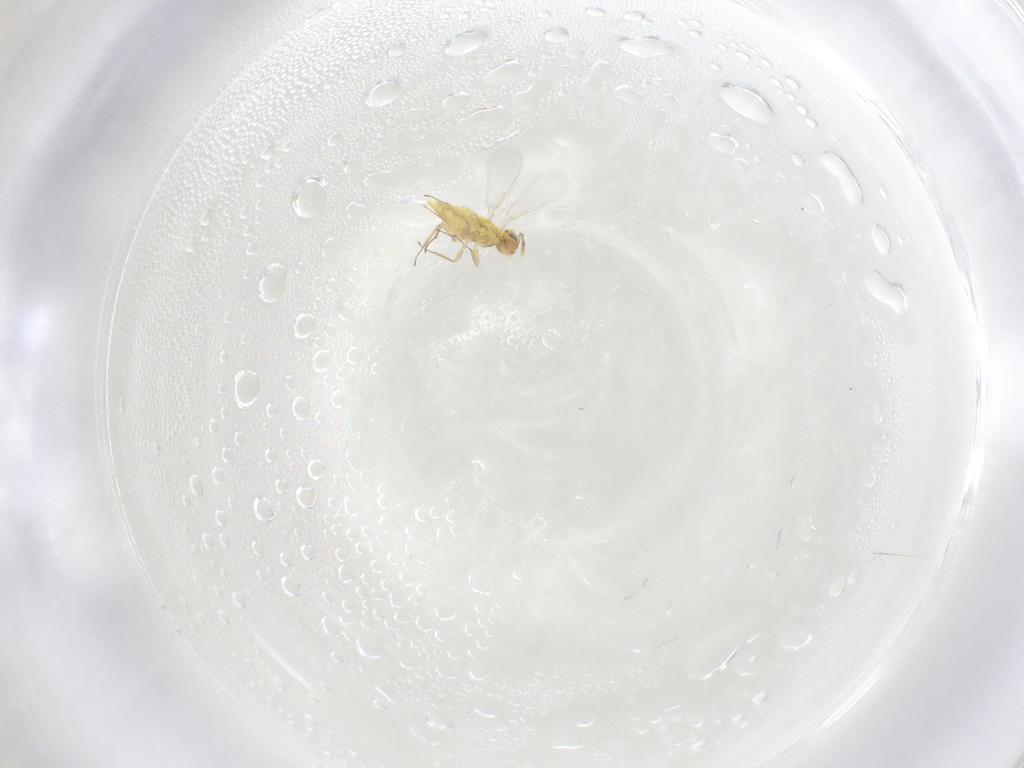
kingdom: Animalia
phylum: Arthropoda
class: Insecta
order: Hymenoptera
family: Aphelinidae
